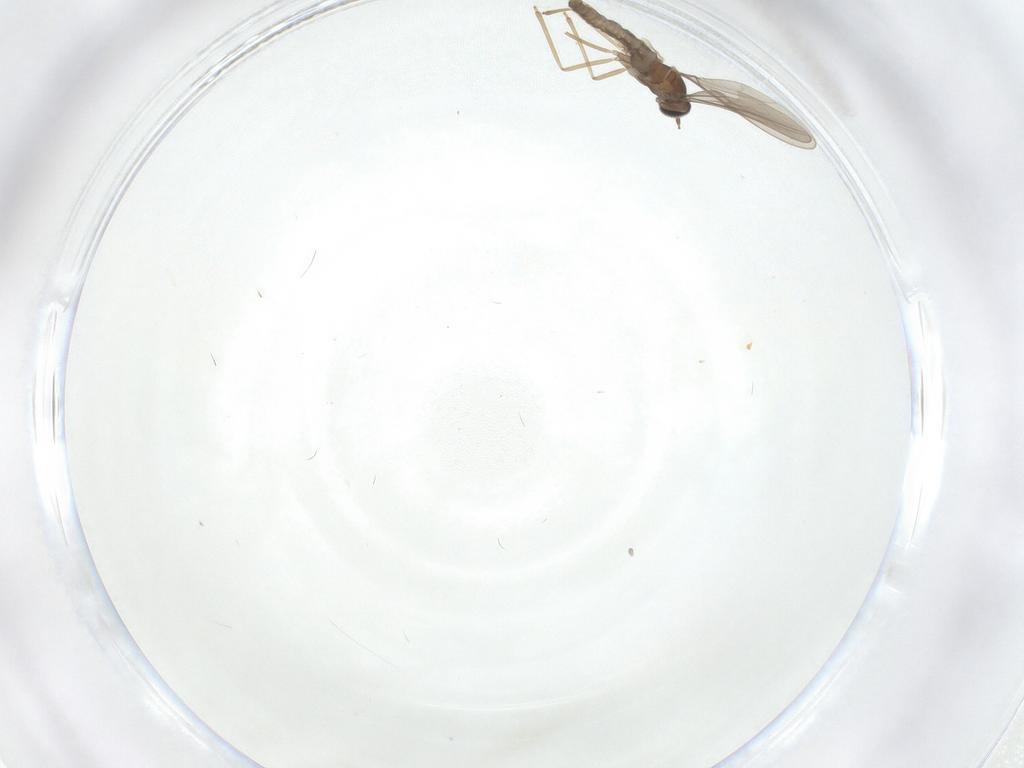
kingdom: Animalia
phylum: Arthropoda
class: Insecta
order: Diptera
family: Cecidomyiidae
